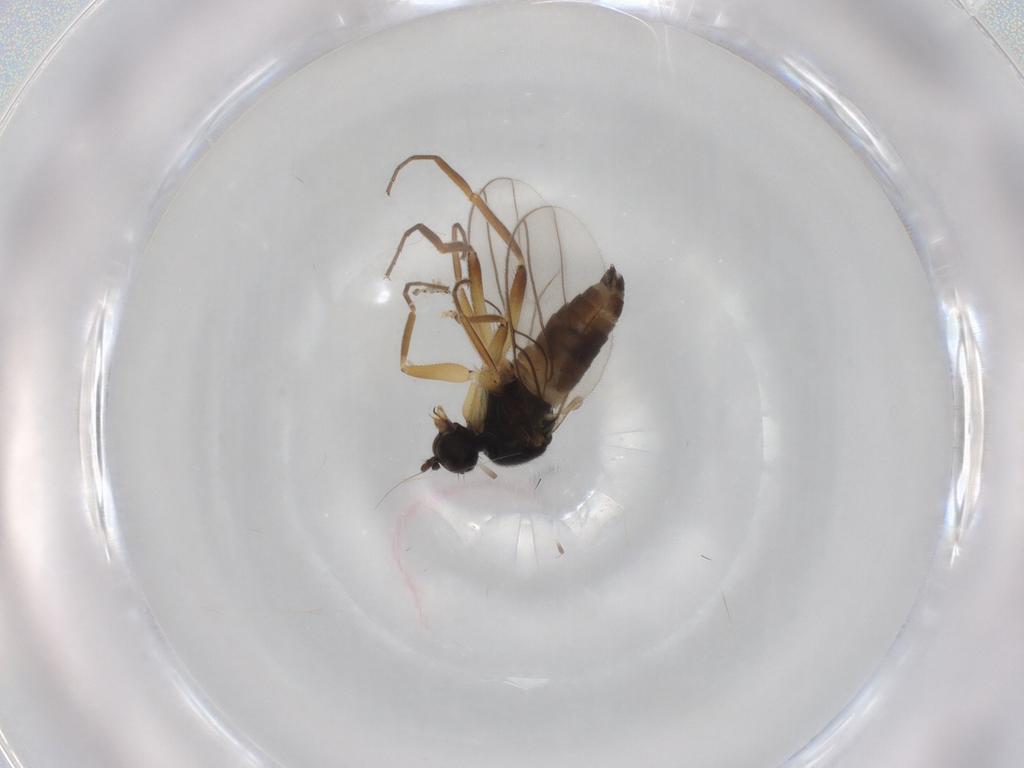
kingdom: Animalia
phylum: Arthropoda
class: Insecta
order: Diptera
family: Hybotidae
